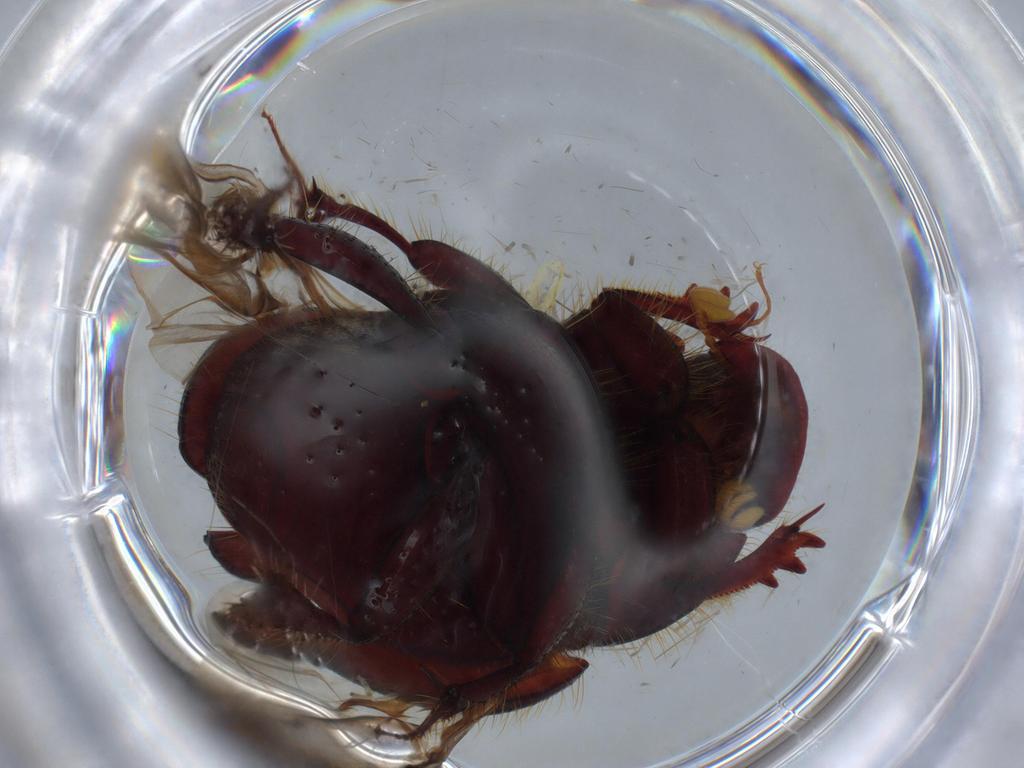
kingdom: Animalia
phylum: Arthropoda
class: Insecta
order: Coleoptera
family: Scarabaeidae
